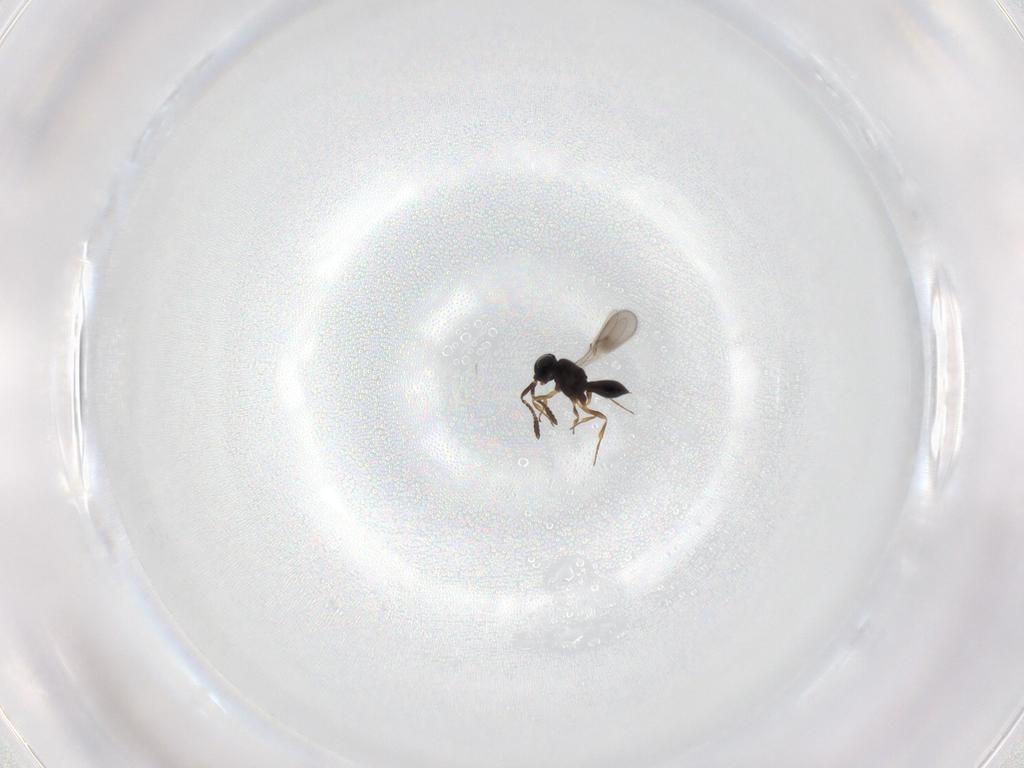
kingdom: Animalia
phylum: Arthropoda
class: Insecta
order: Hymenoptera
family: Scelionidae
